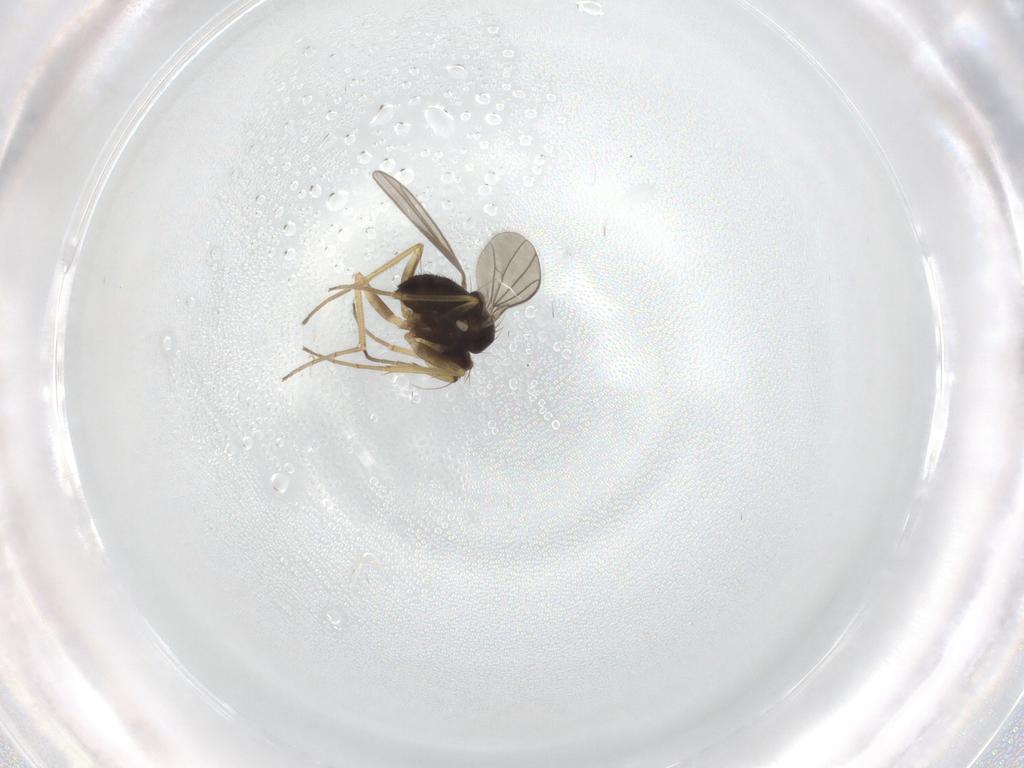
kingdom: Animalia
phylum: Arthropoda
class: Insecta
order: Diptera
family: Dolichopodidae
